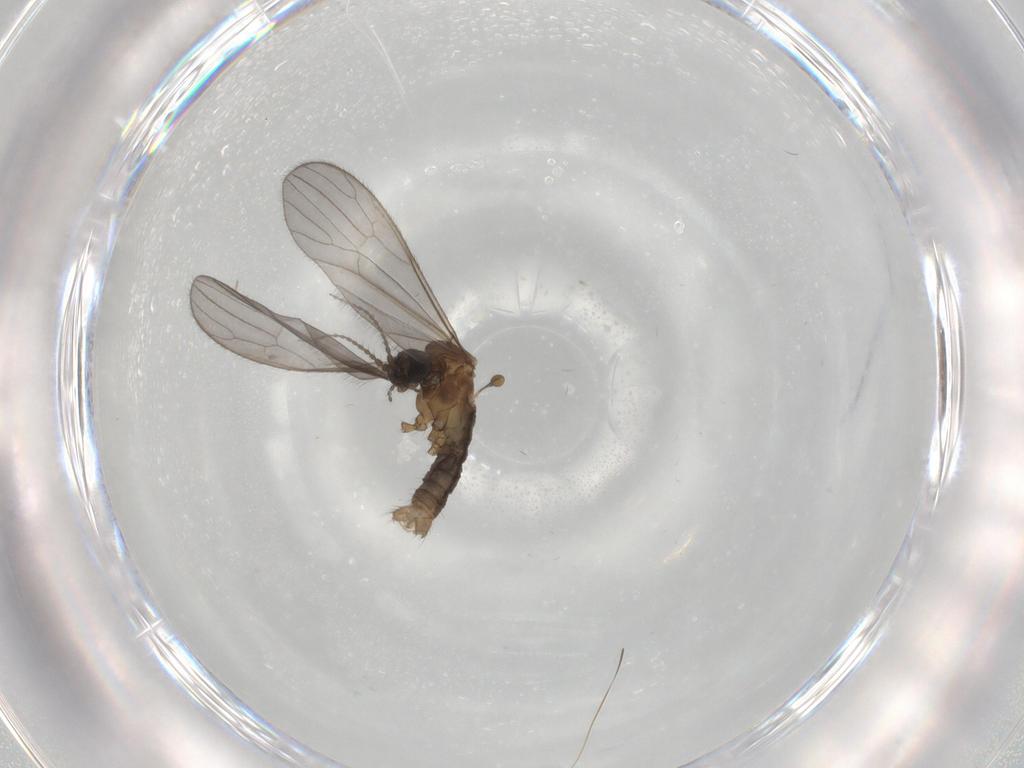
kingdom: Animalia
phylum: Arthropoda
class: Insecta
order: Diptera
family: Limoniidae
